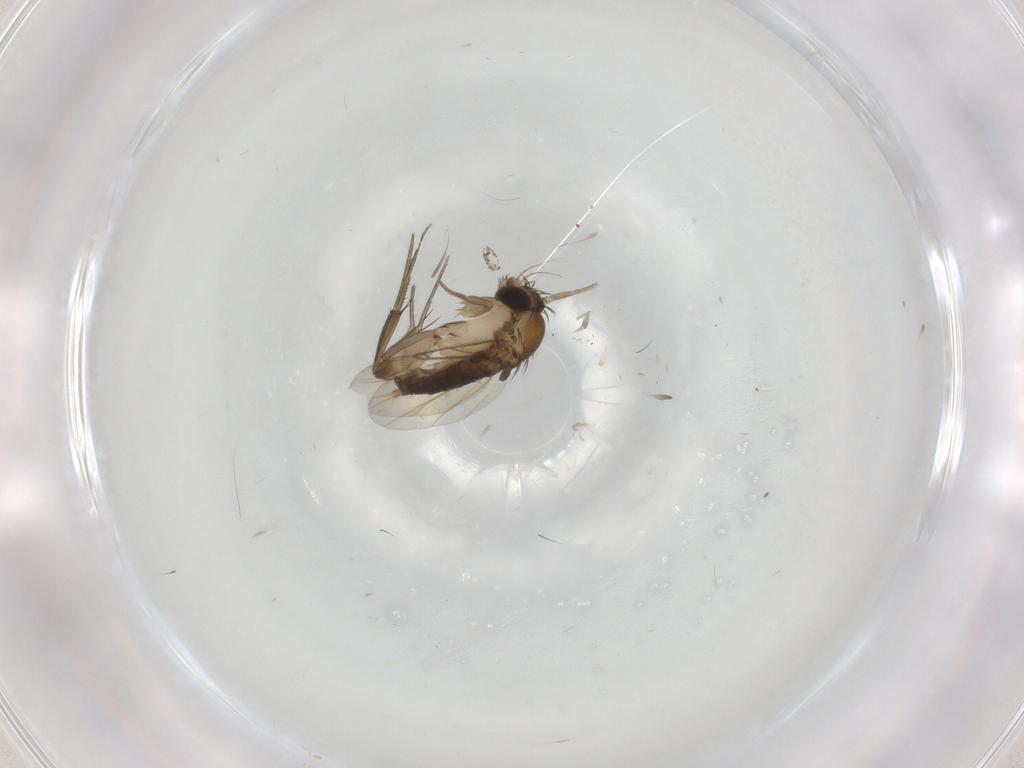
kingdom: Animalia
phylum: Arthropoda
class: Insecta
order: Diptera
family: Phoridae
